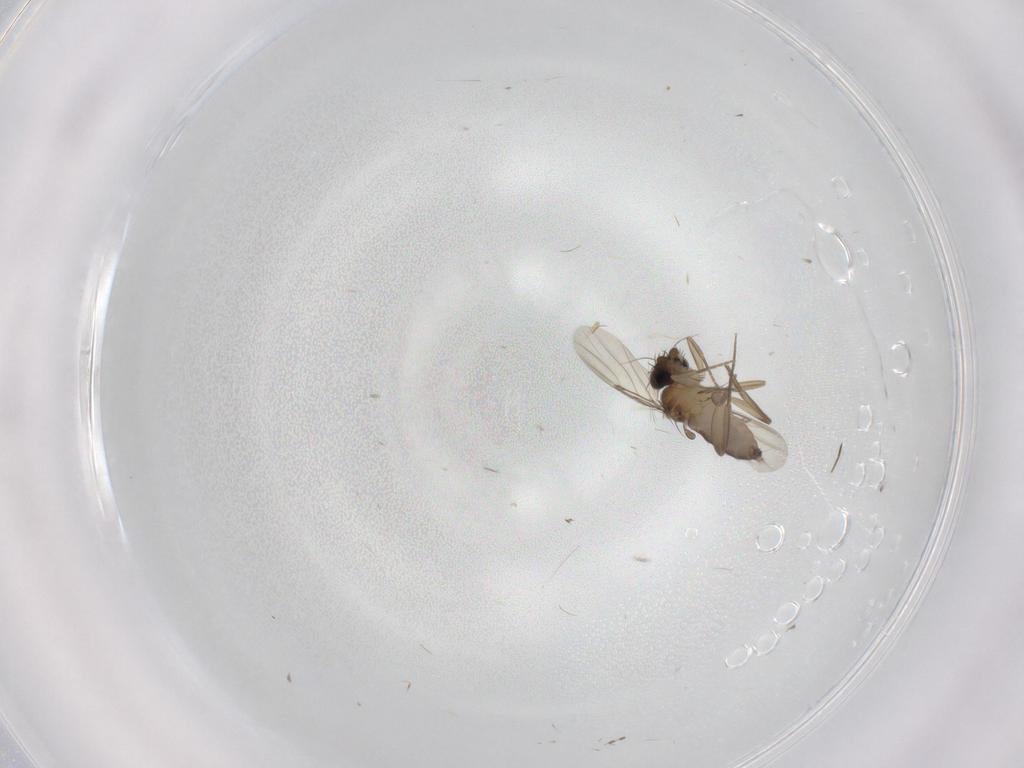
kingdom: Animalia
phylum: Arthropoda
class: Insecta
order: Diptera
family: Phoridae
